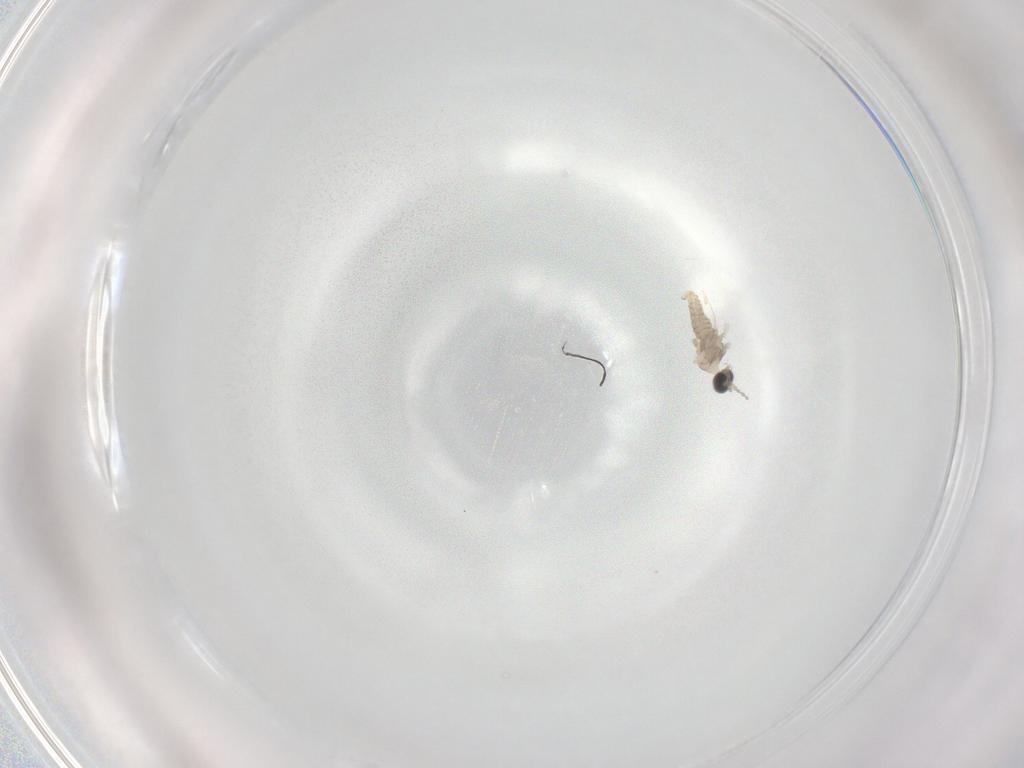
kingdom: Animalia
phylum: Arthropoda
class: Insecta
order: Diptera
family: Cecidomyiidae
